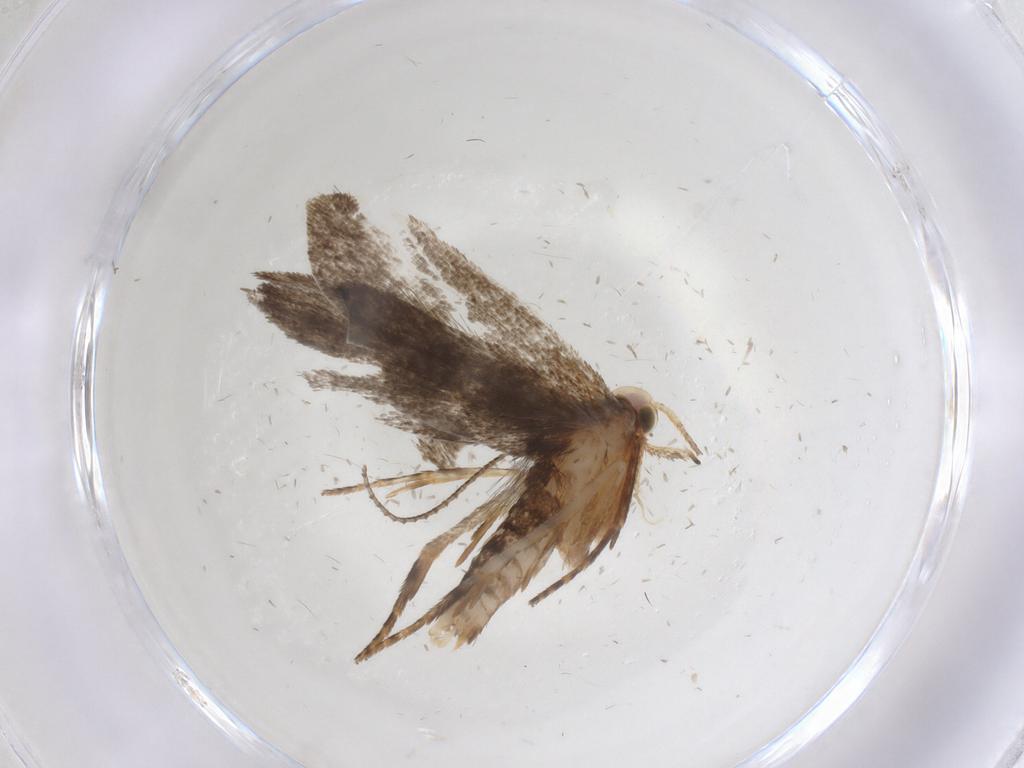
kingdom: Animalia
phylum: Arthropoda
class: Insecta
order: Lepidoptera
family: Gelechiidae
